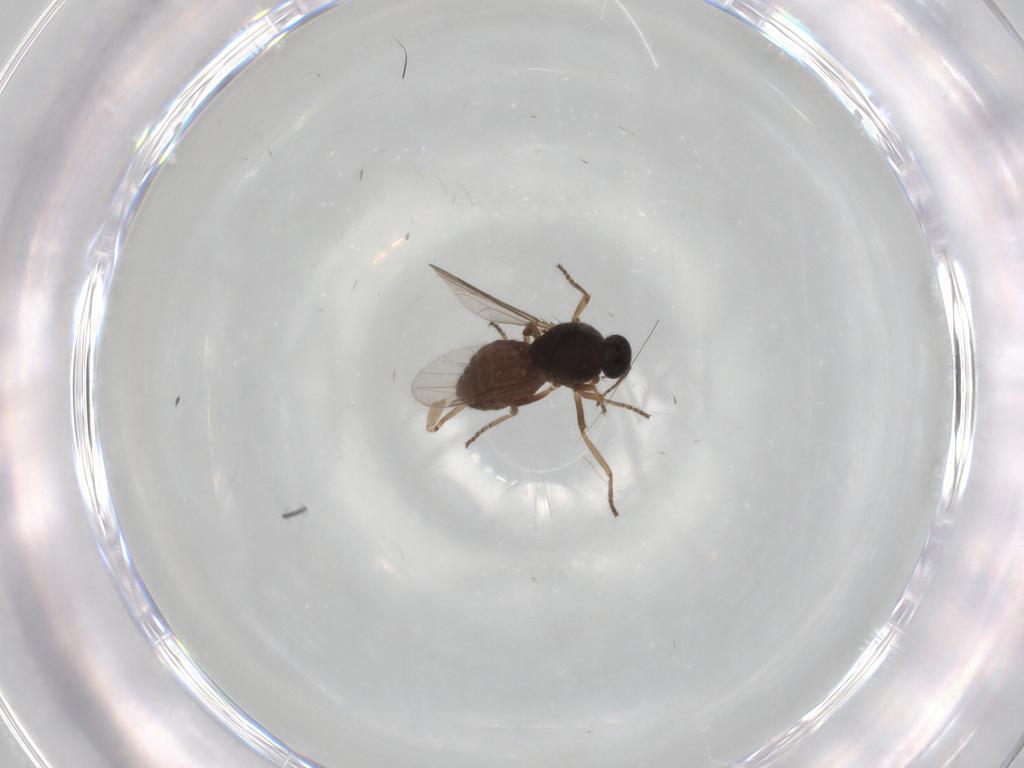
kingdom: Animalia
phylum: Arthropoda
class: Insecta
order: Diptera
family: Ceratopogonidae
